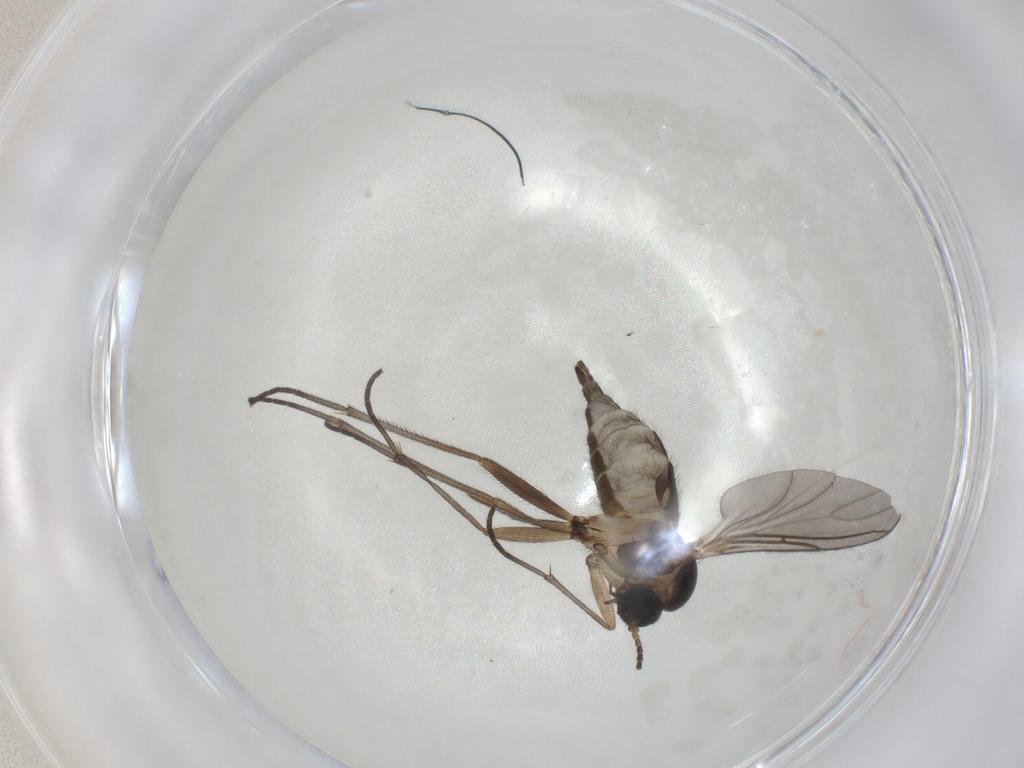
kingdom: Animalia
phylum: Arthropoda
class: Insecta
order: Diptera
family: Sciaridae
